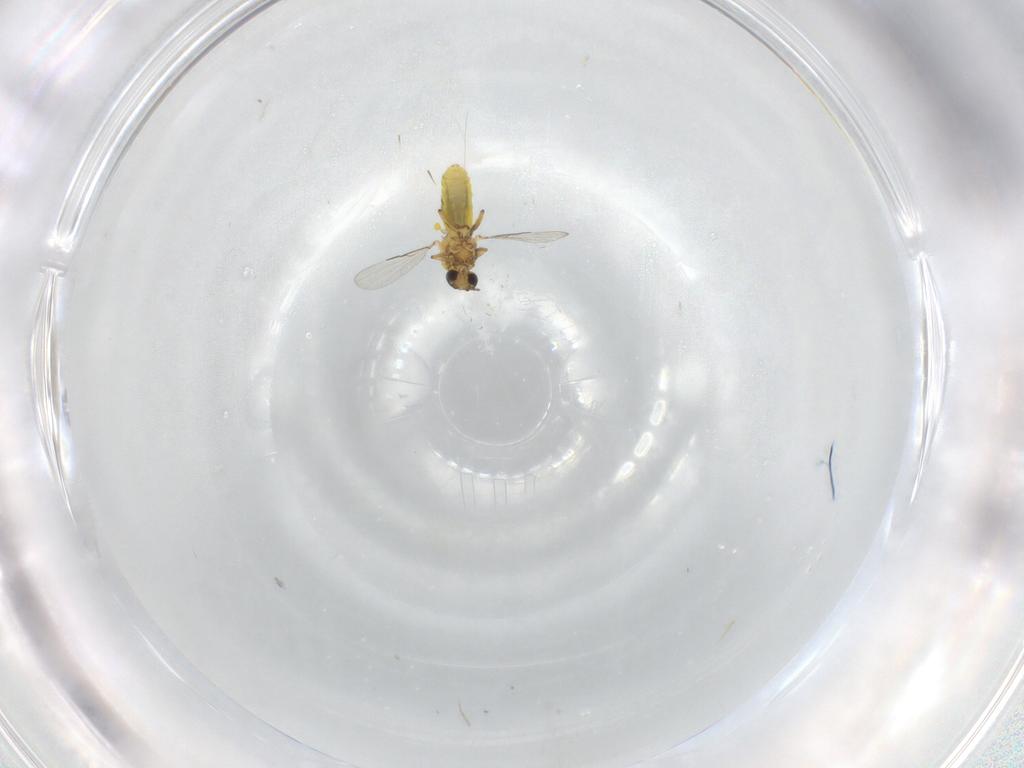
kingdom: Animalia
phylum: Arthropoda
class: Insecta
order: Diptera
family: Ceratopogonidae
